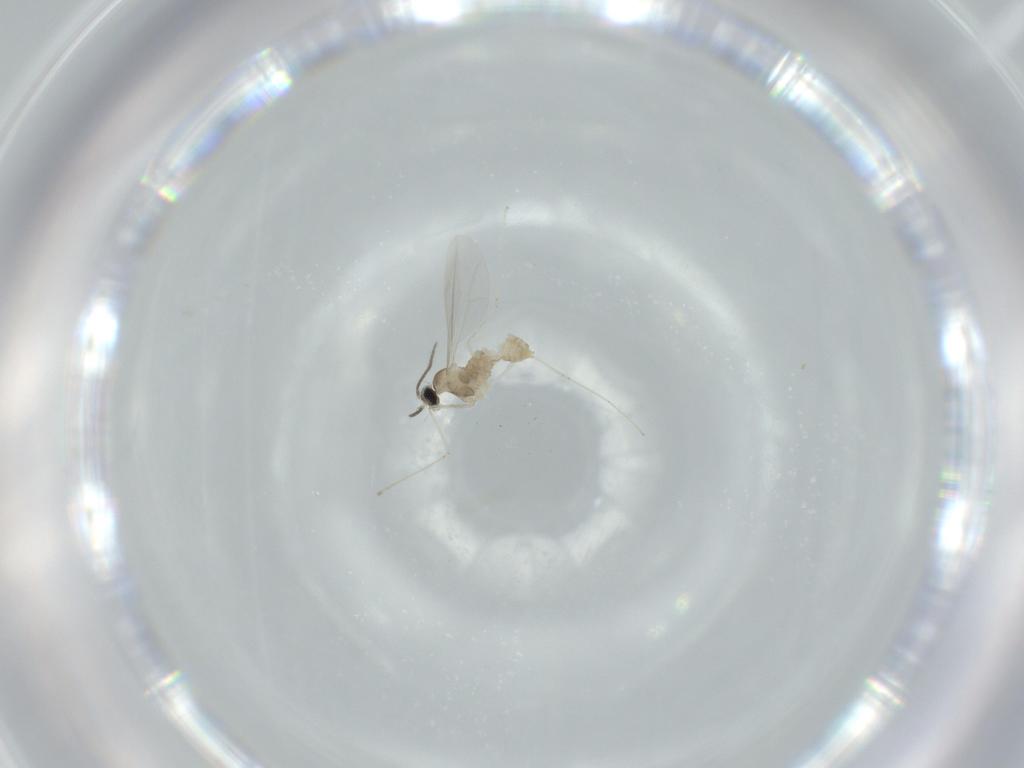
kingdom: Animalia
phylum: Arthropoda
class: Insecta
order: Diptera
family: Cecidomyiidae
